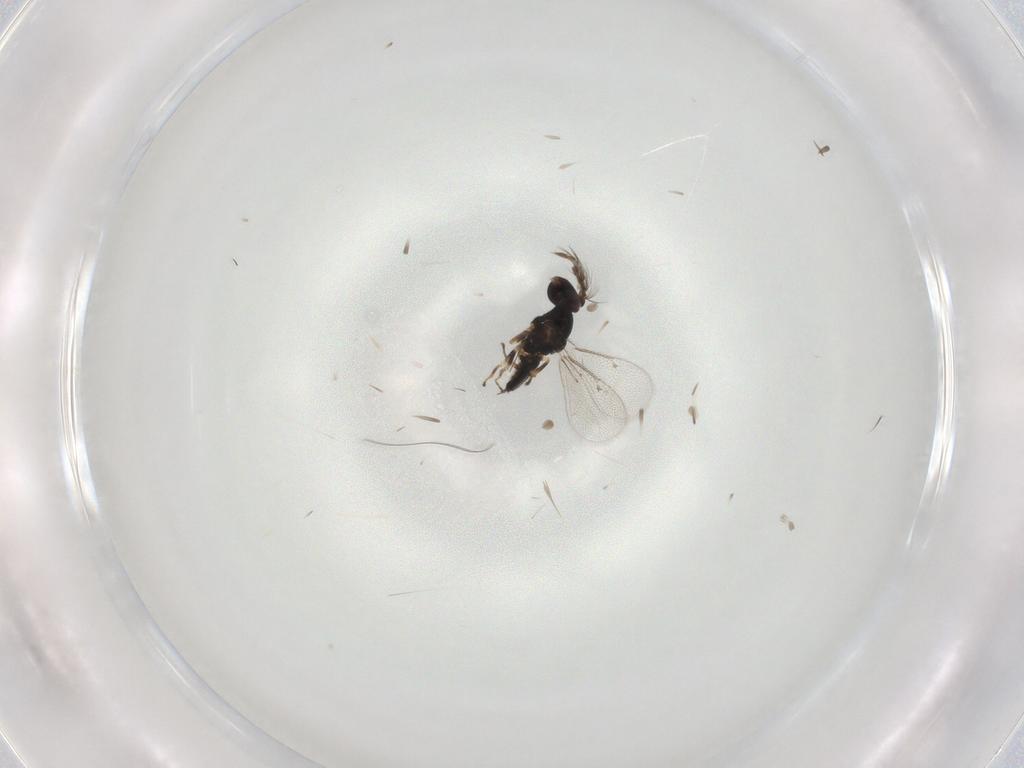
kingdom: Animalia
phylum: Arthropoda
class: Insecta
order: Hymenoptera
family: Eulophidae
